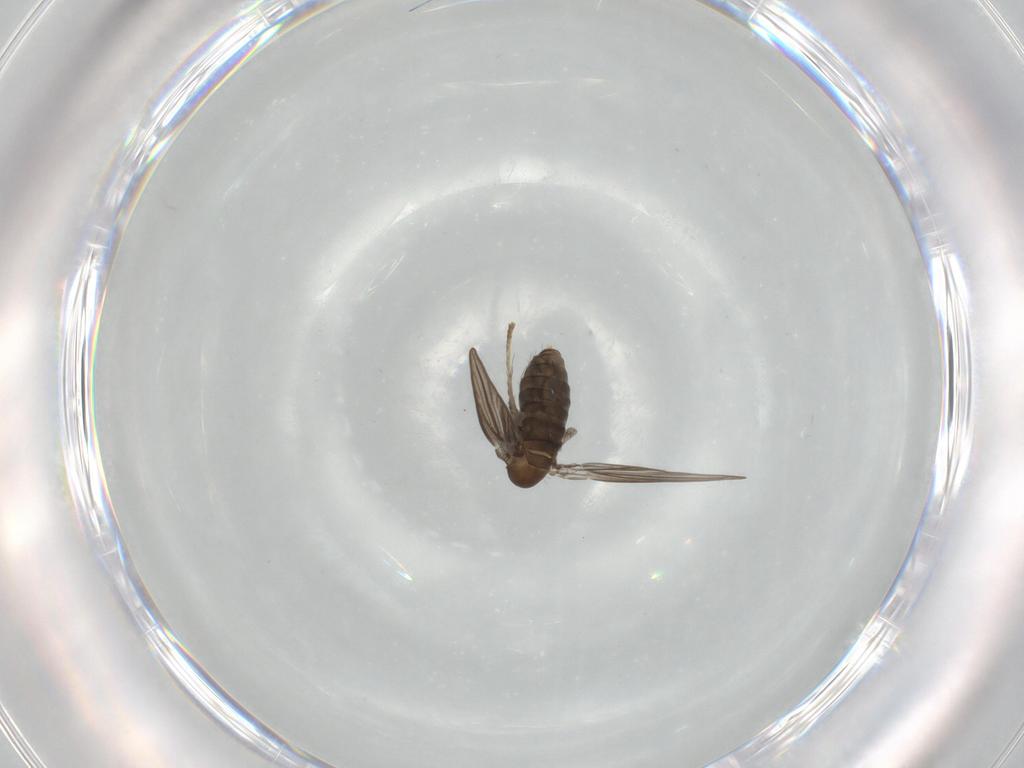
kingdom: Animalia
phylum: Arthropoda
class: Insecta
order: Diptera
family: Psychodidae
